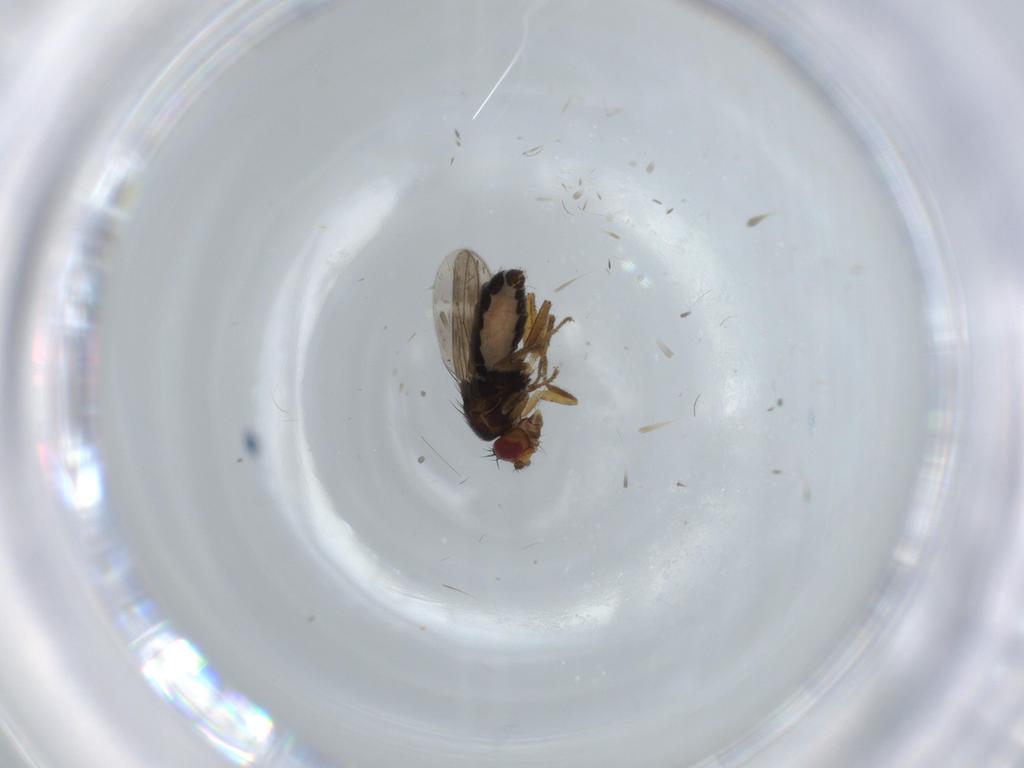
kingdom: Animalia
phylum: Arthropoda
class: Insecta
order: Diptera
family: Sphaeroceridae
